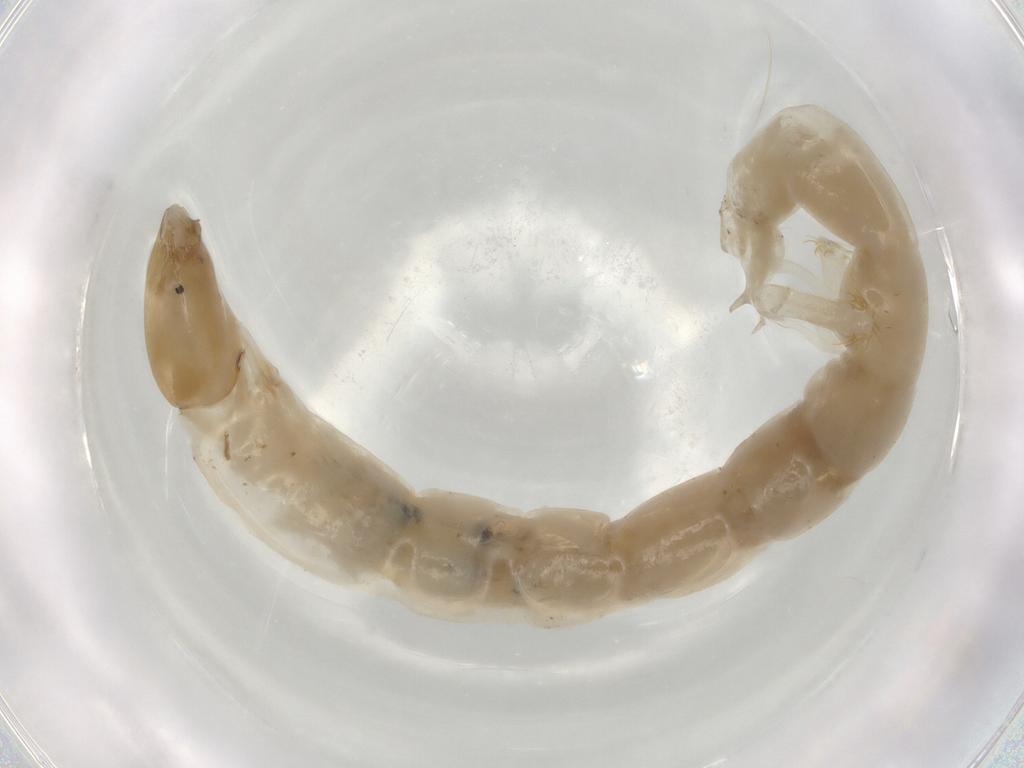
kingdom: Animalia
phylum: Arthropoda
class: Insecta
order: Diptera
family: Chironomidae
